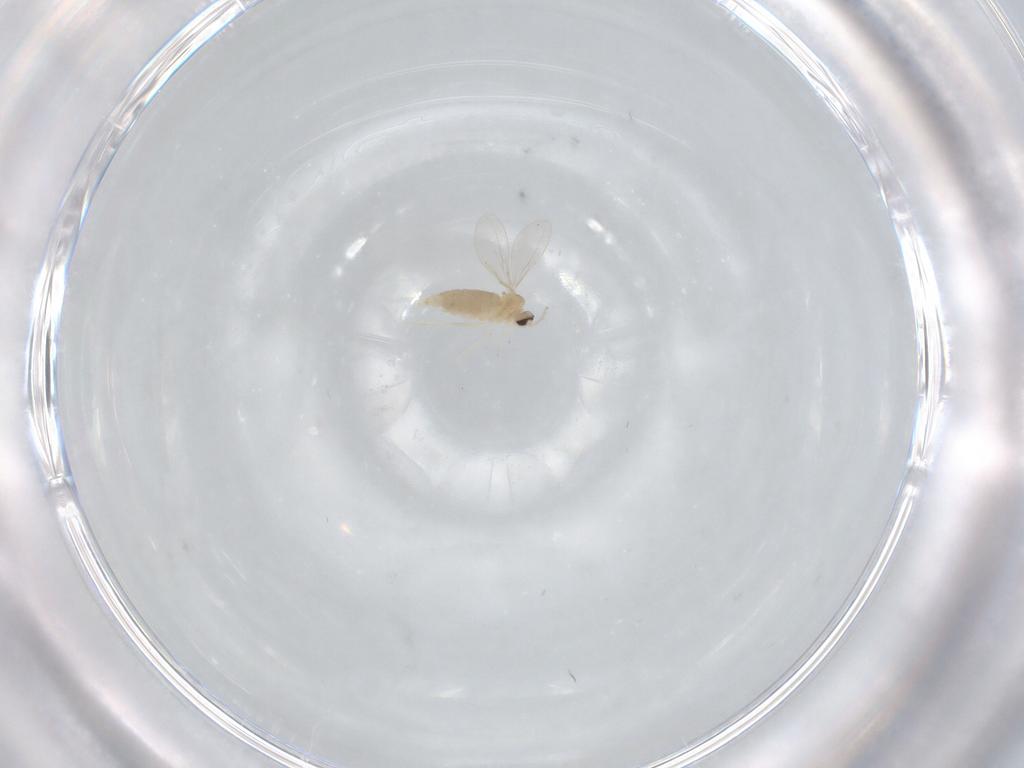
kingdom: Animalia
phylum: Arthropoda
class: Insecta
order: Diptera
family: Cecidomyiidae
